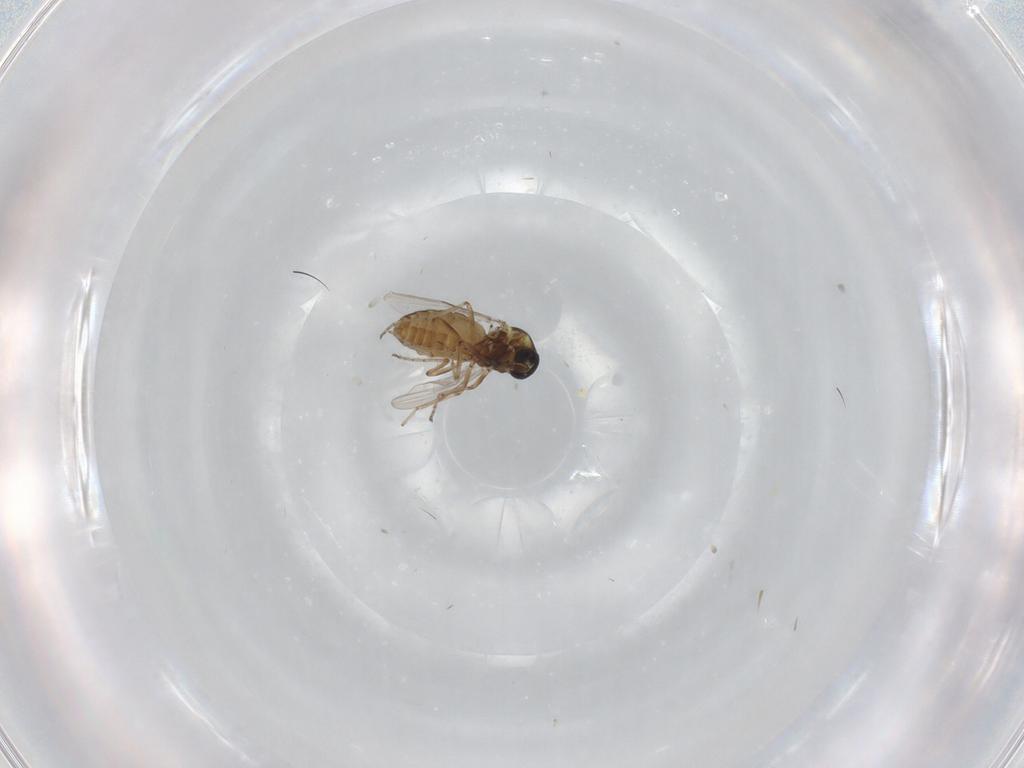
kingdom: Animalia
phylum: Arthropoda
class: Insecta
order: Diptera
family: Ceratopogonidae
